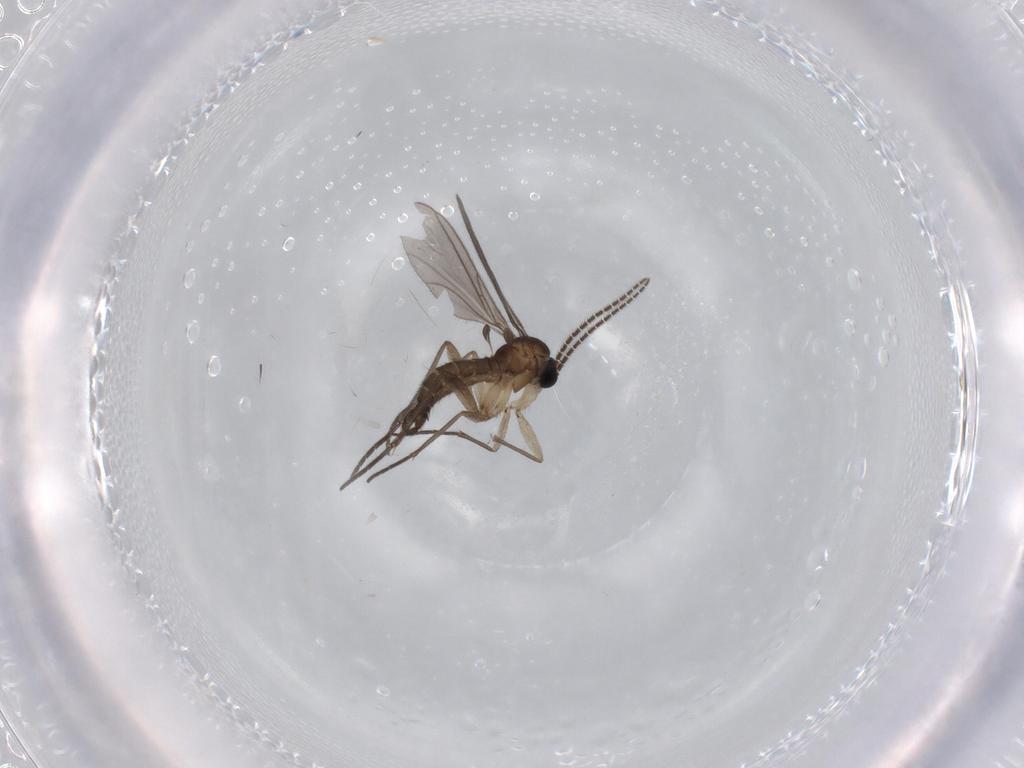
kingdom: Animalia
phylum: Arthropoda
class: Insecta
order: Diptera
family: Sciaridae
